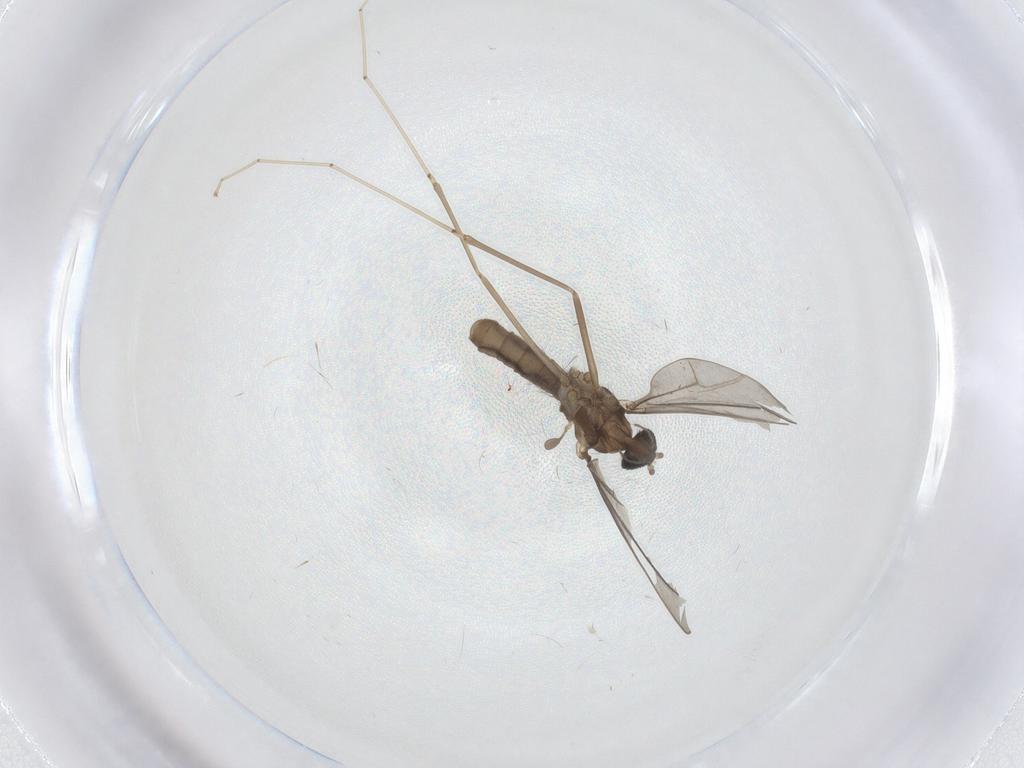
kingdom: Animalia
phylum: Arthropoda
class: Insecta
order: Diptera
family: Cecidomyiidae
